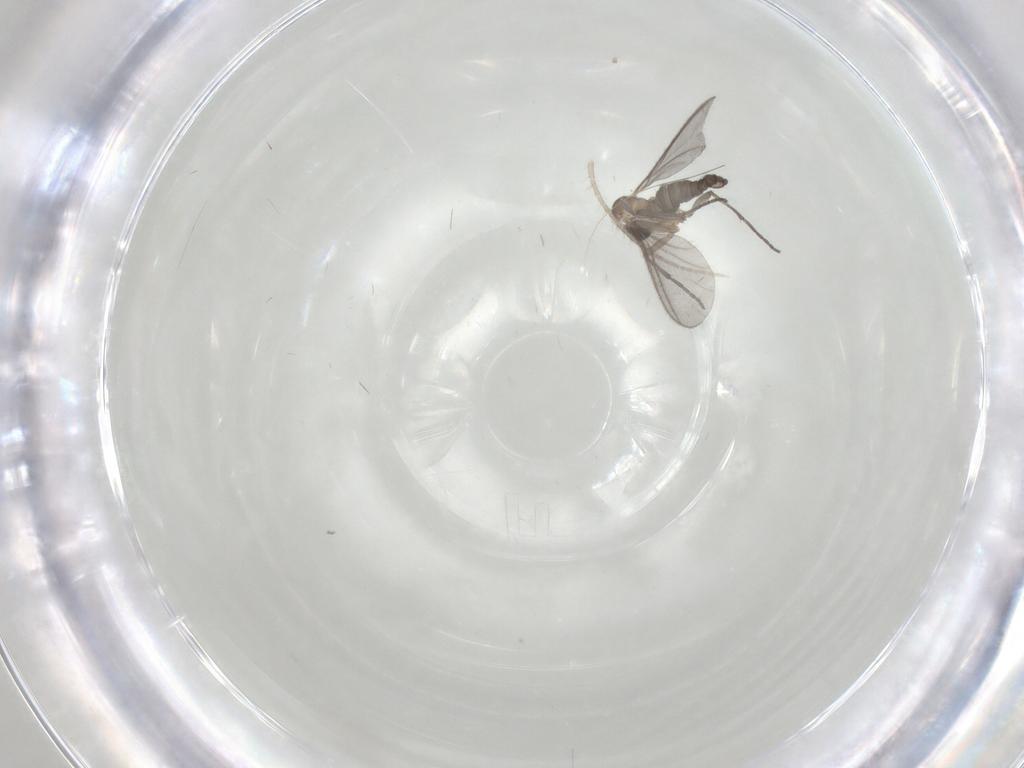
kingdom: Animalia
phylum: Arthropoda
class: Insecta
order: Diptera
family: Sciaridae
